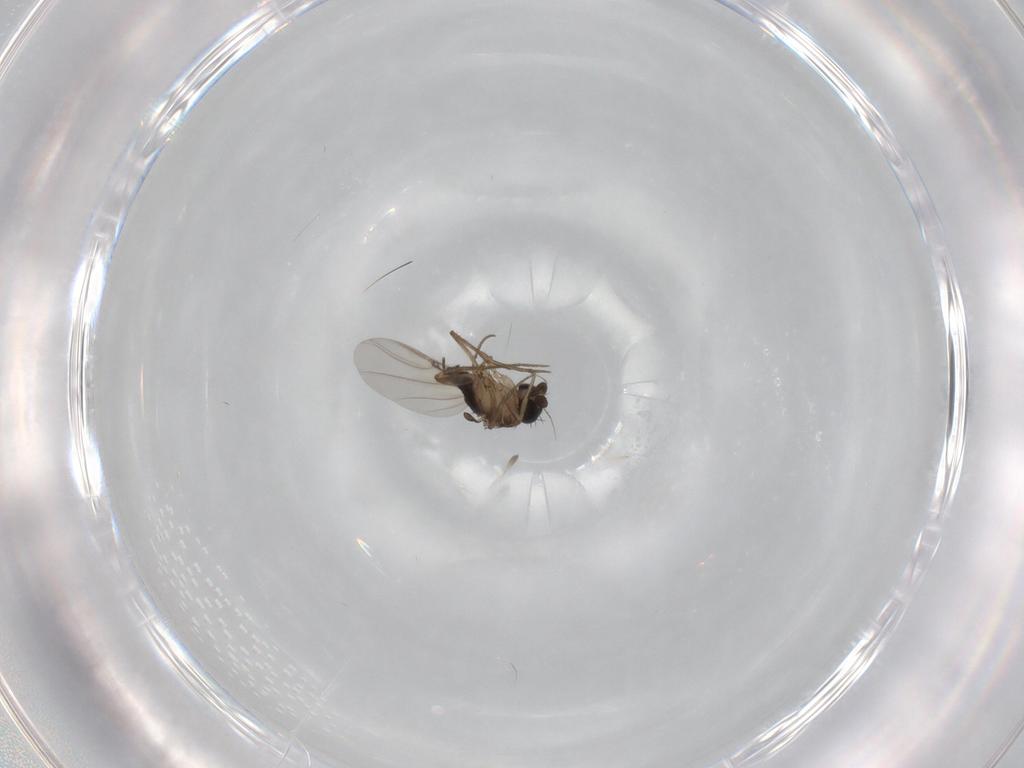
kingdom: Animalia
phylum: Arthropoda
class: Insecta
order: Diptera
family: Phoridae
